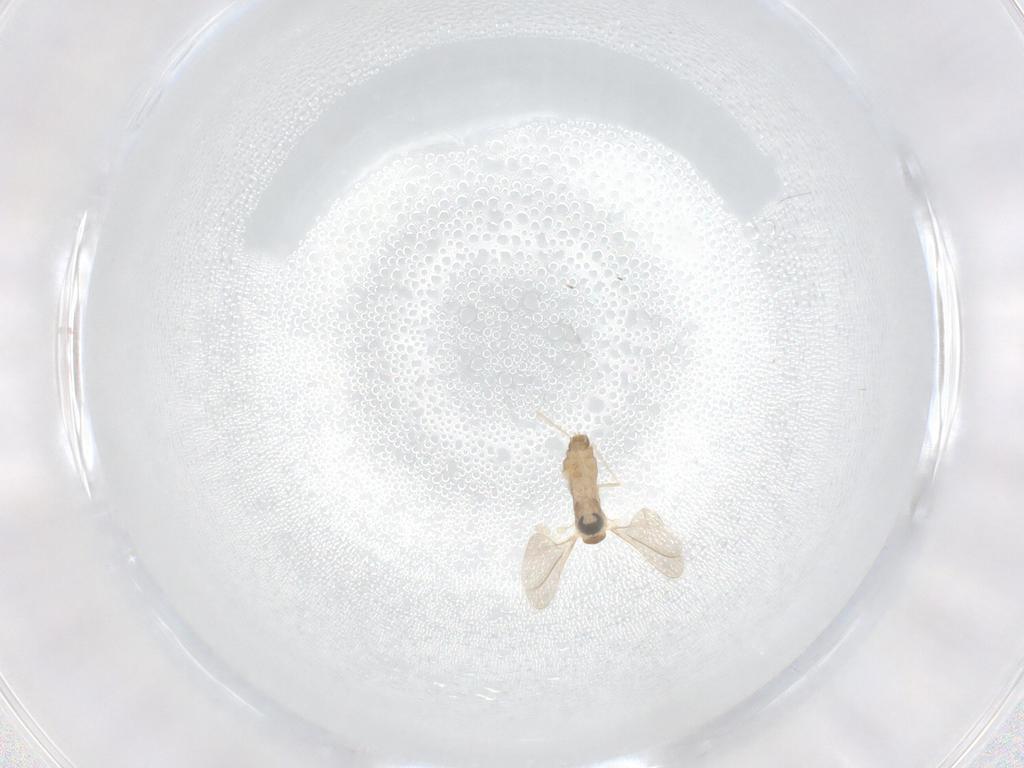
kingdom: Animalia
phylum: Arthropoda
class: Insecta
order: Diptera
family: Cecidomyiidae
